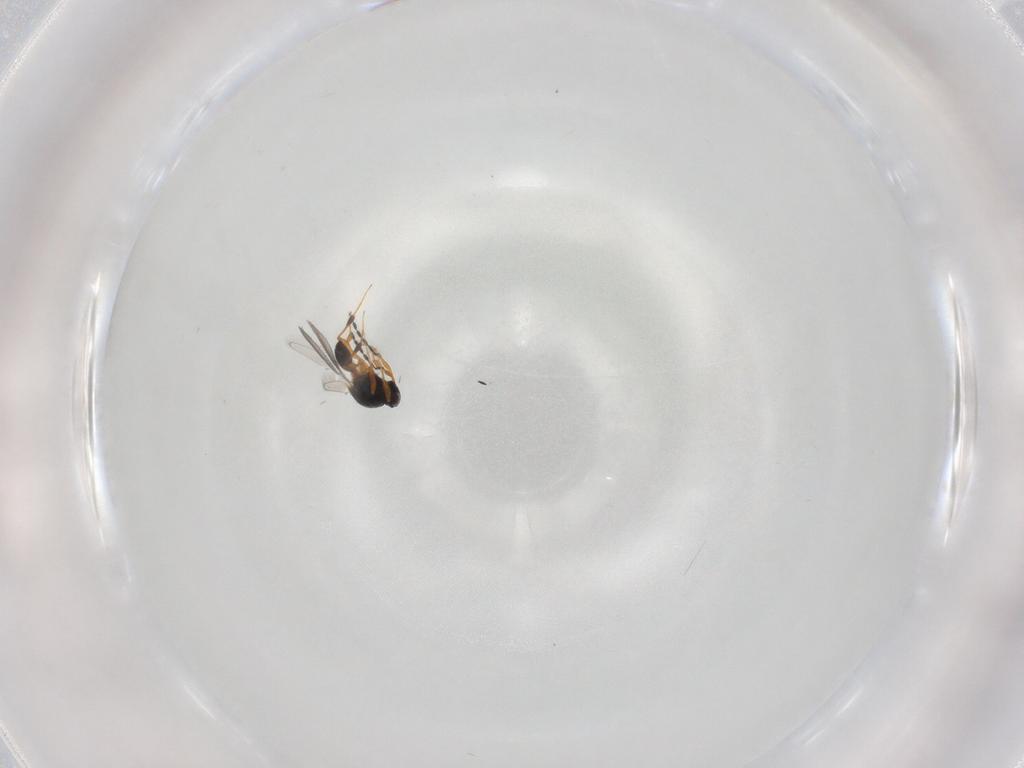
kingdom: Animalia
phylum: Arthropoda
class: Insecta
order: Hymenoptera
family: Platygastridae
